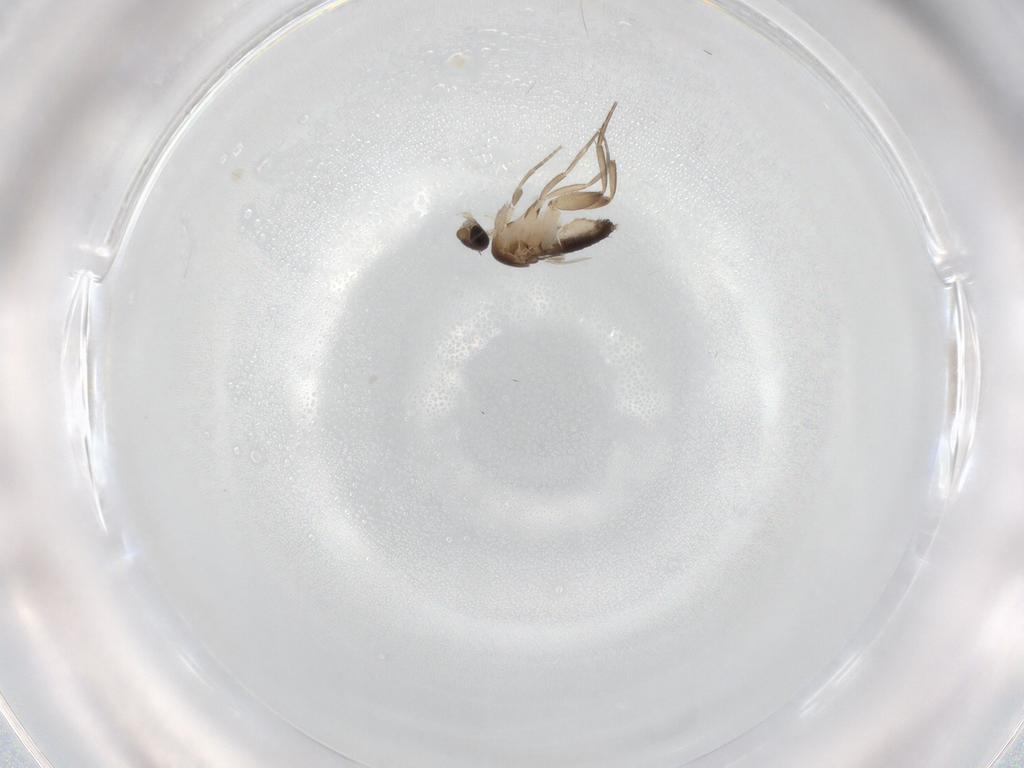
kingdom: Animalia
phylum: Arthropoda
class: Insecta
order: Diptera
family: Phoridae
